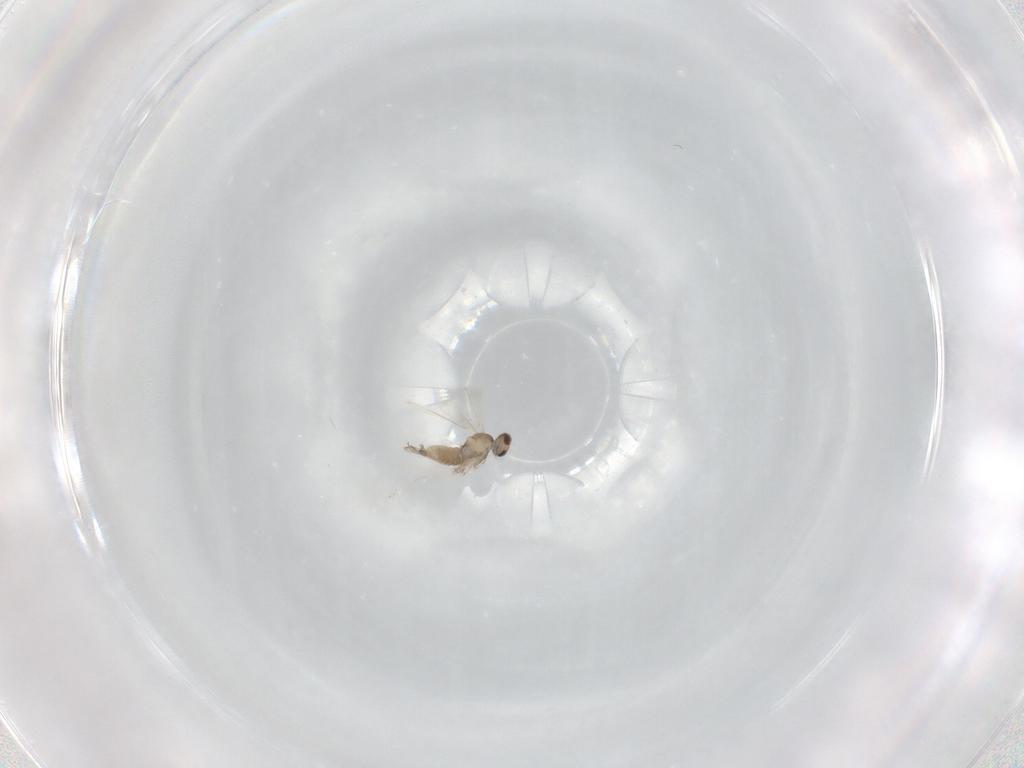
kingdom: Animalia
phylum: Arthropoda
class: Insecta
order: Diptera
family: Cecidomyiidae
